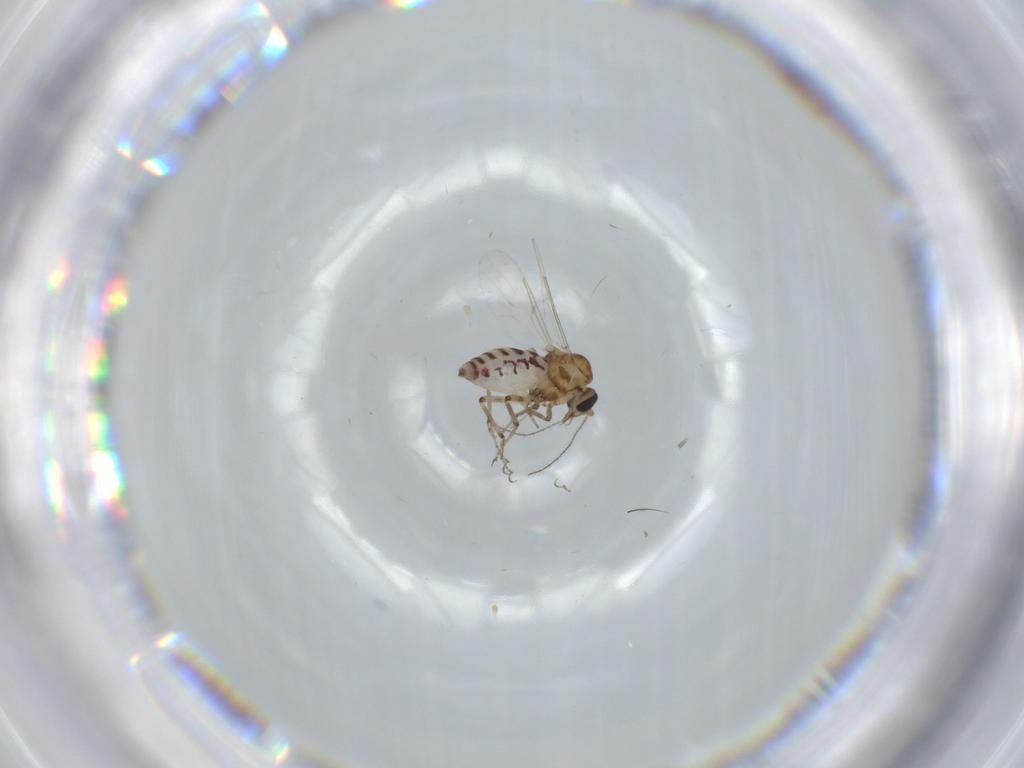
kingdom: Animalia
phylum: Arthropoda
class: Insecta
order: Diptera
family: Ceratopogonidae
